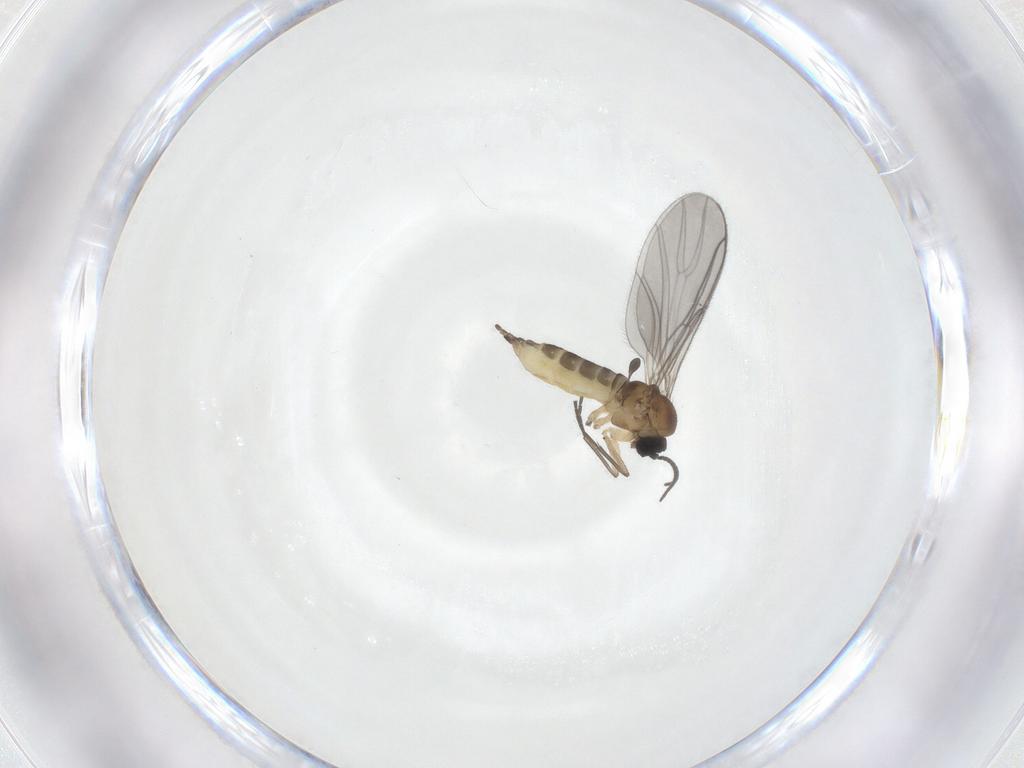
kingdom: Animalia
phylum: Arthropoda
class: Insecta
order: Diptera
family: Sciaridae
